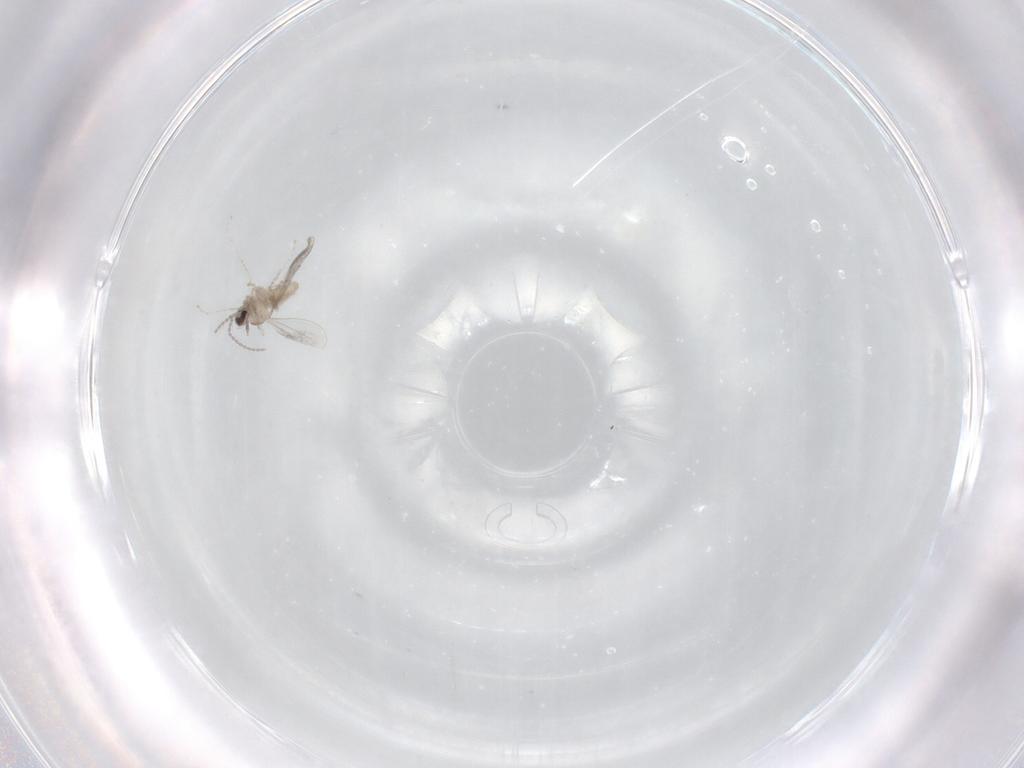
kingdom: Animalia
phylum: Arthropoda
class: Insecta
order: Diptera
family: Cecidomyiidae
